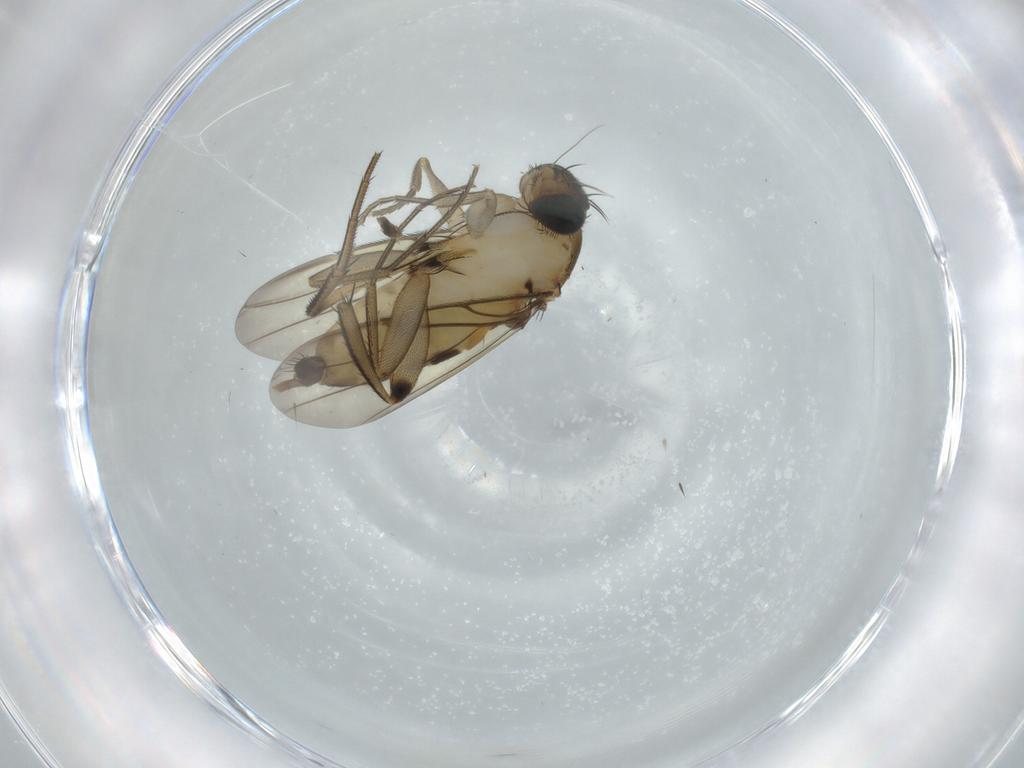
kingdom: Animalia
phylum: Arthropoda
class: Insecta
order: Diptera
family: Phoridae
